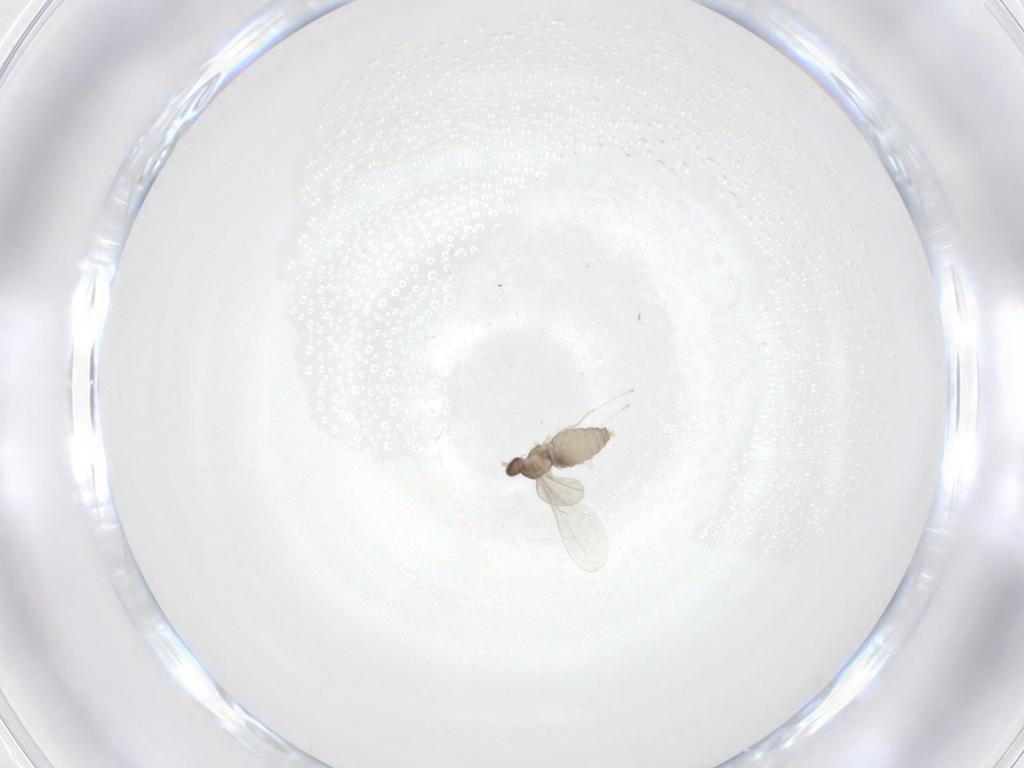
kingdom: Animalia
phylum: Arthropoda
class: Insecta
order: Diptera
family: Cecidomyiidae
